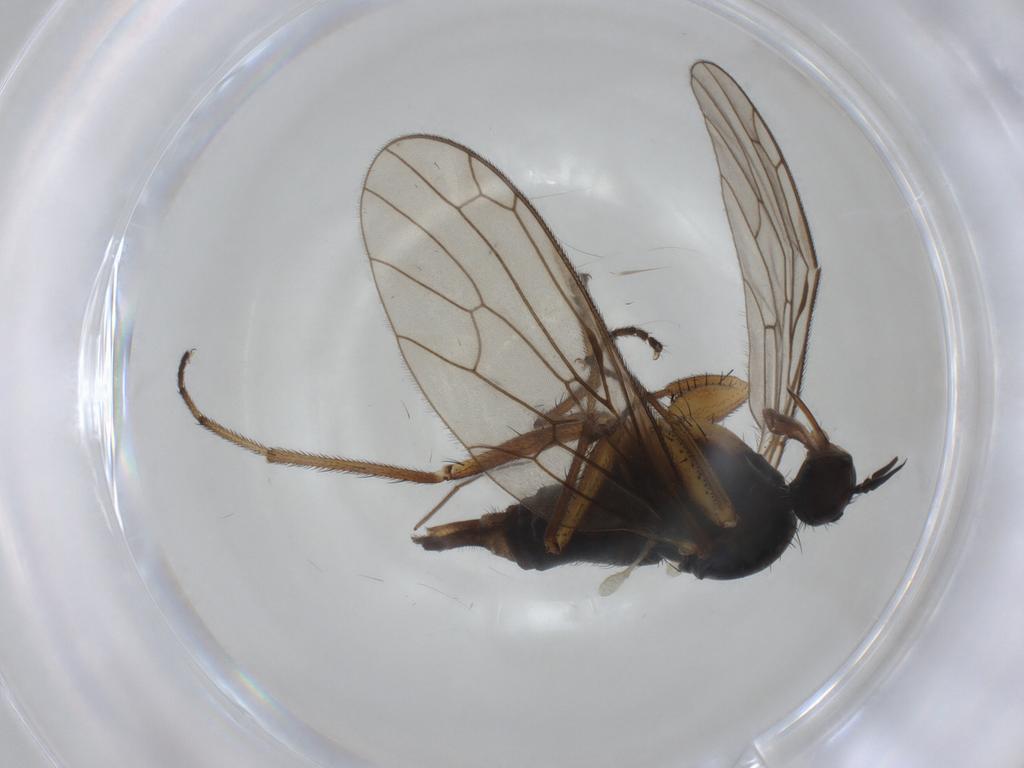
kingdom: Animalia
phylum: Arthropoda
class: Insecta
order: Diptera
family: Empididae
